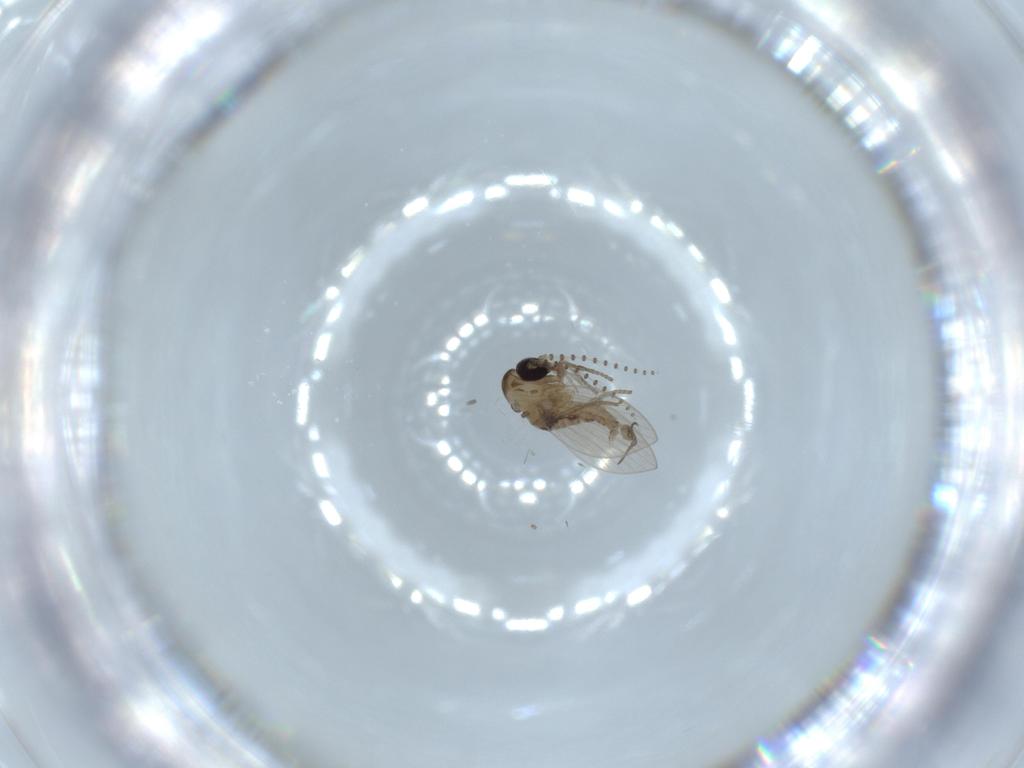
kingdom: Animalia
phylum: Arthropoda
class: Insecta
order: Diptera
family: Psychodidae
